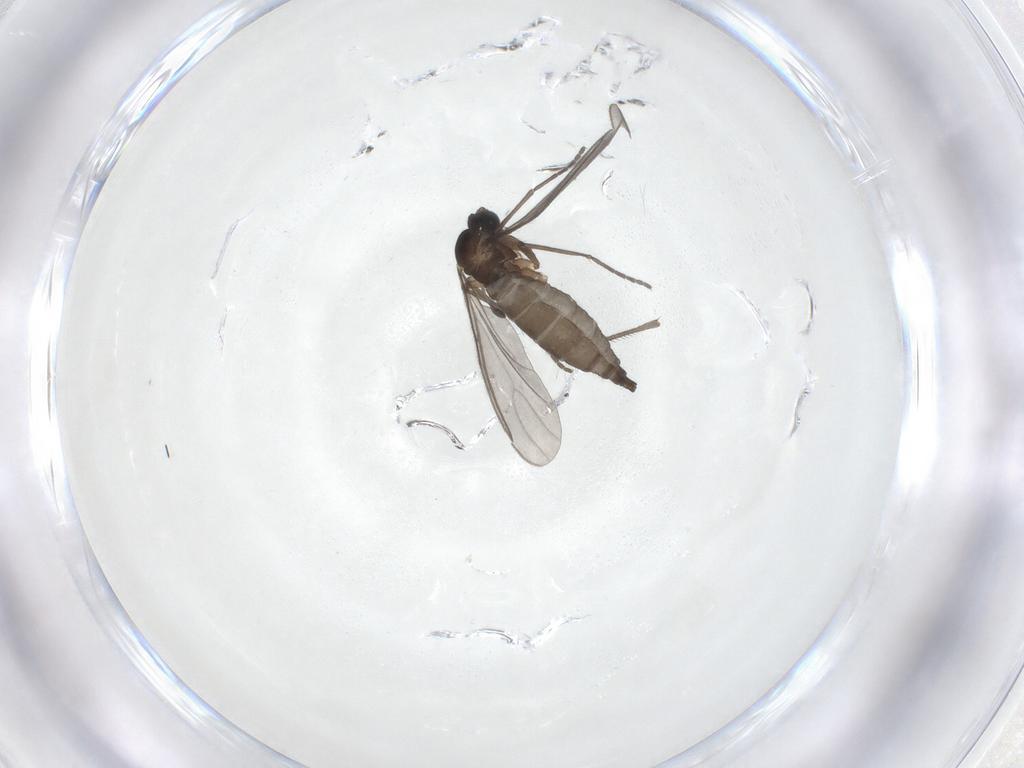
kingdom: Animalia
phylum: Arthropoda
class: Insecta
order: Diptera
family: Sciaridae
